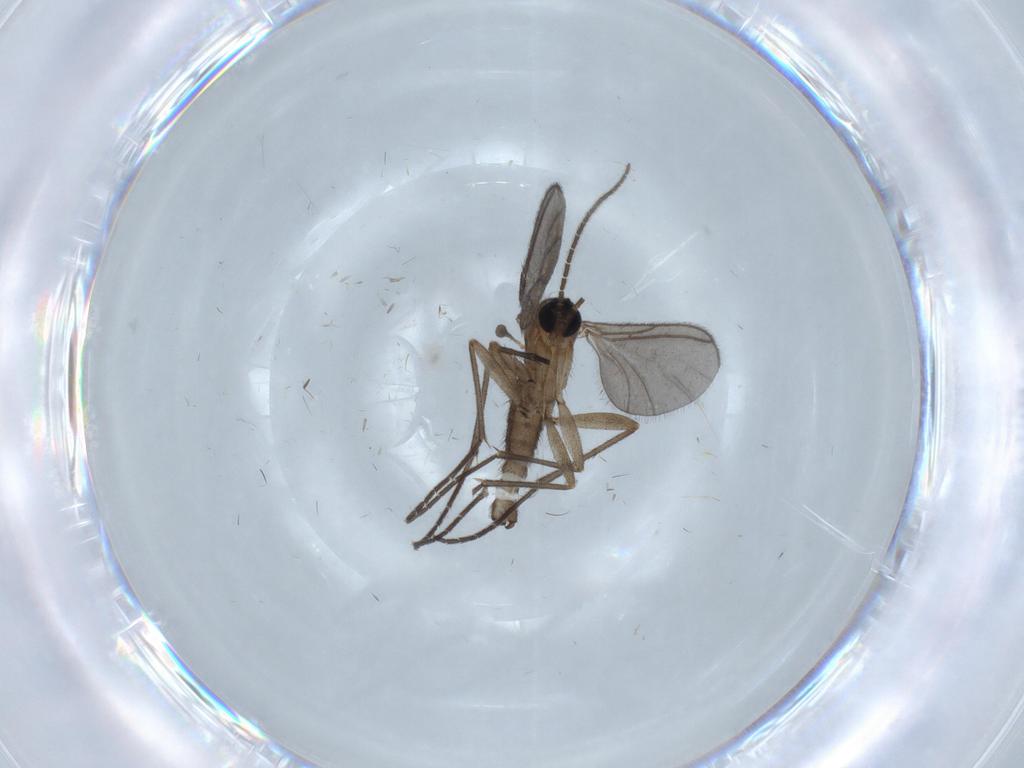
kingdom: Animalia
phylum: Arthropoda
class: Insecta
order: Diptera
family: Sciaridae
